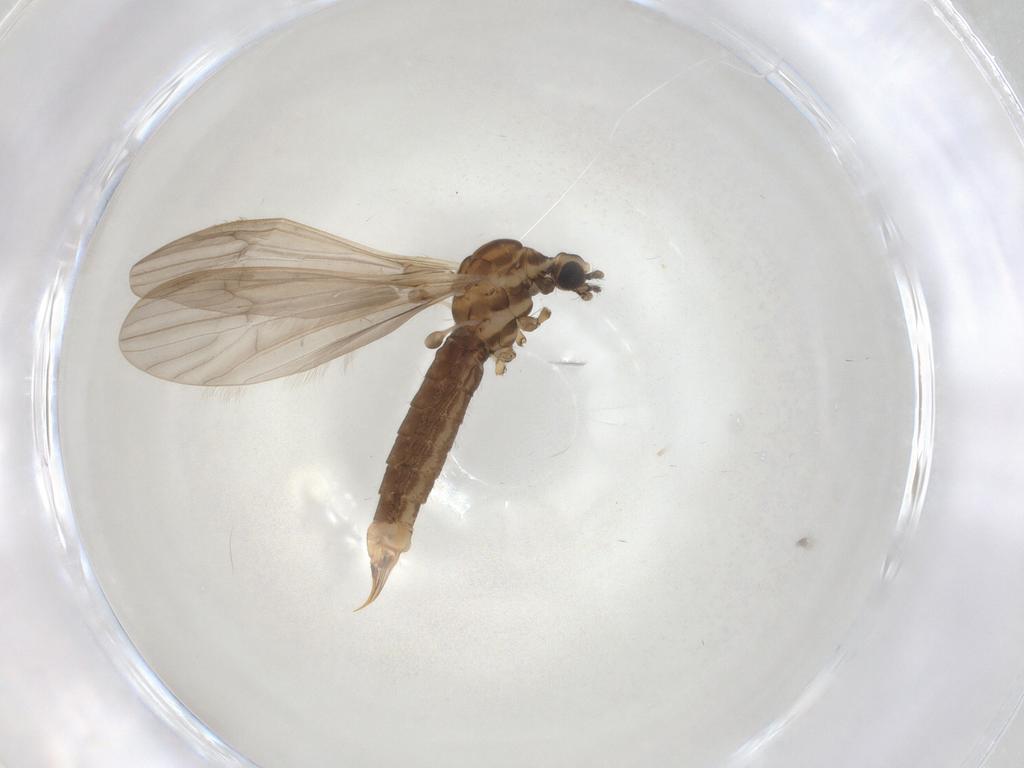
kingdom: Animalia
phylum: Arthropoda
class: Insecta
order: Diptera
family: Limoniidae
